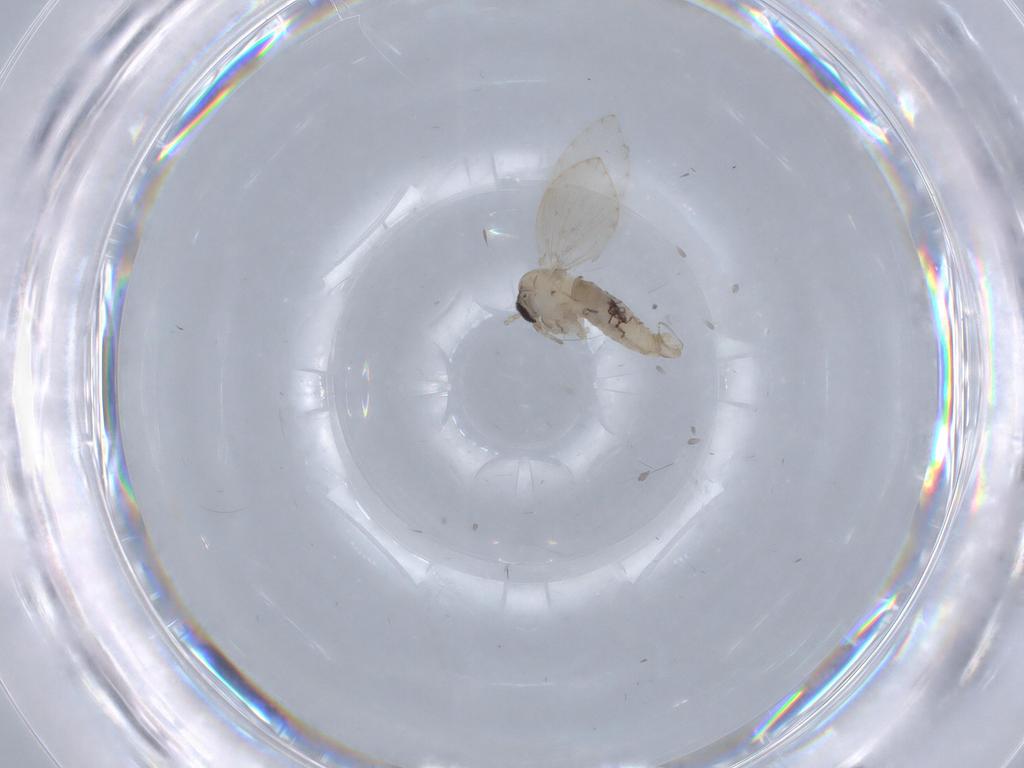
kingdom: Animalia
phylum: Arthropoda
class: Insecta
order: Diptera
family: Psychodidae
